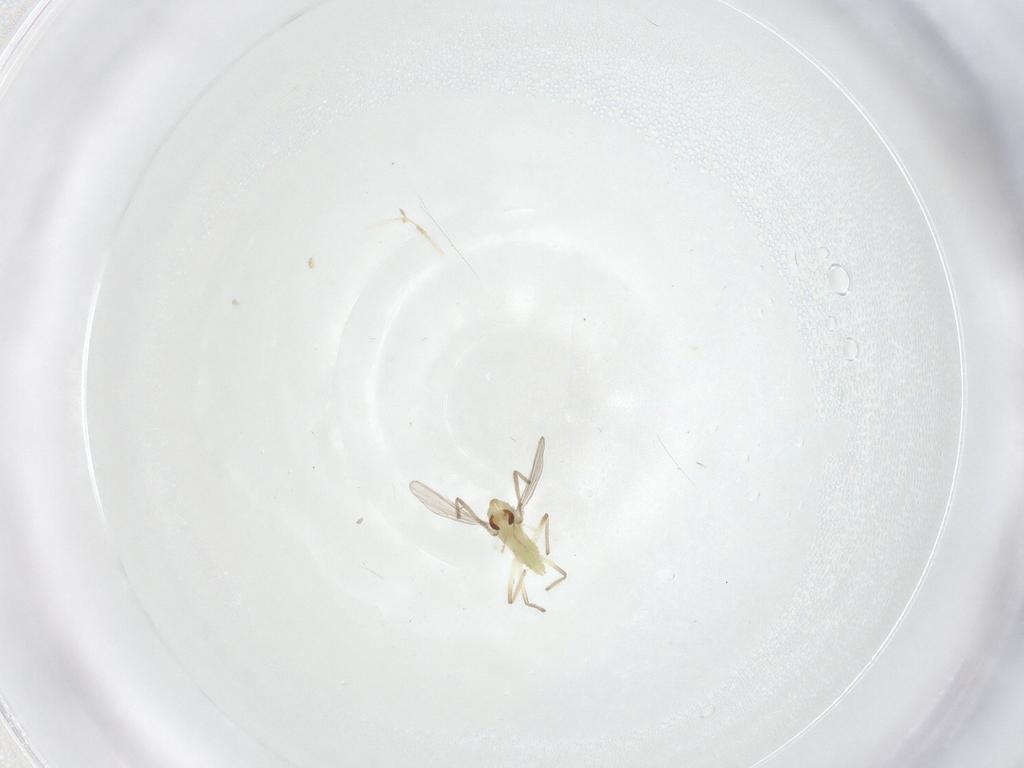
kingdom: Animalia
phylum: Arthropoda
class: Insecta
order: Diptera
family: Chironomidae
